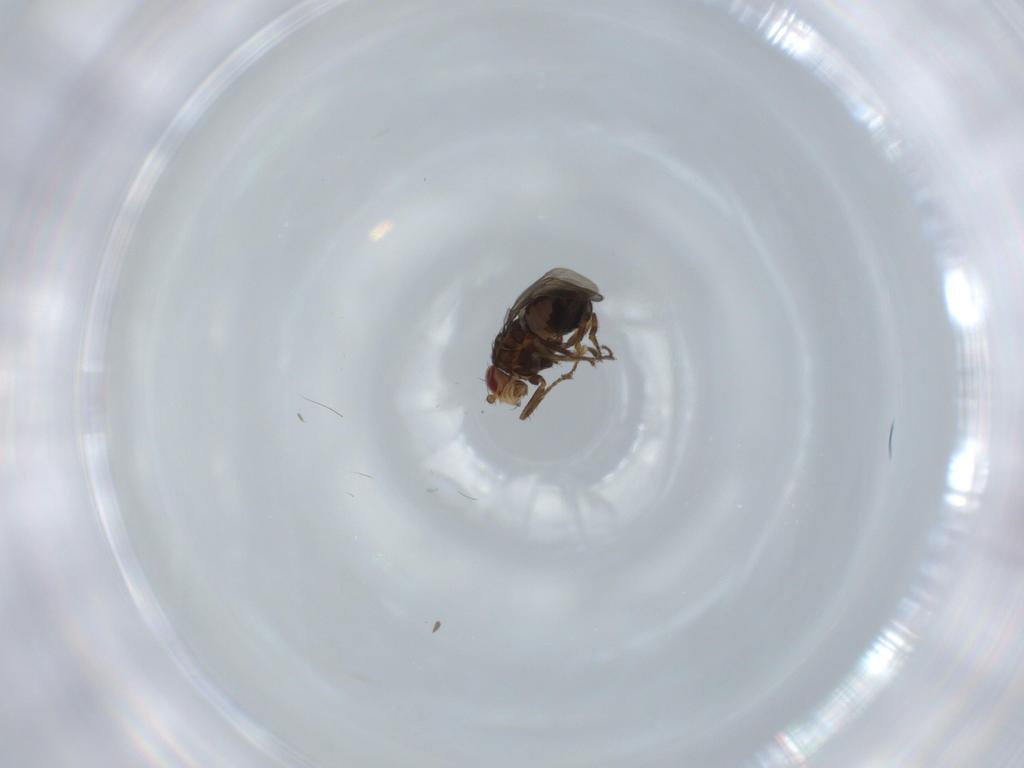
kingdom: Animalia
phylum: Arthropoda
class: Insecta
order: Diptera
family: Sphaeroceridae
